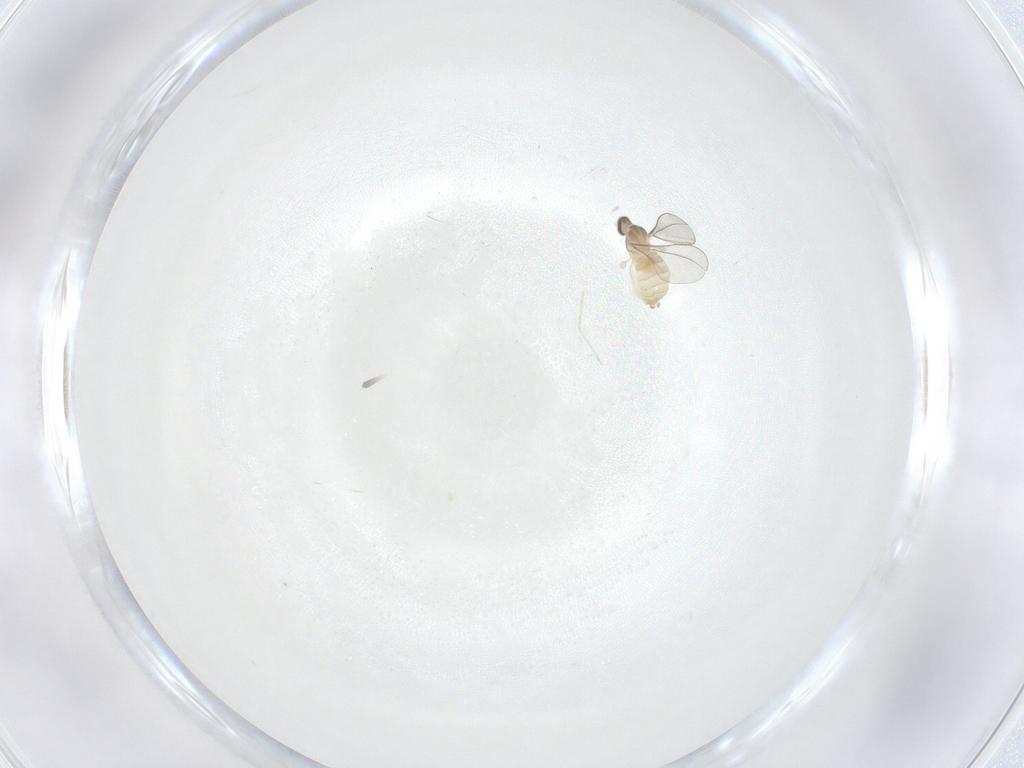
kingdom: Animalia
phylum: Arthropoda
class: Insecta
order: Diptera
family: Cecidomyiidae
